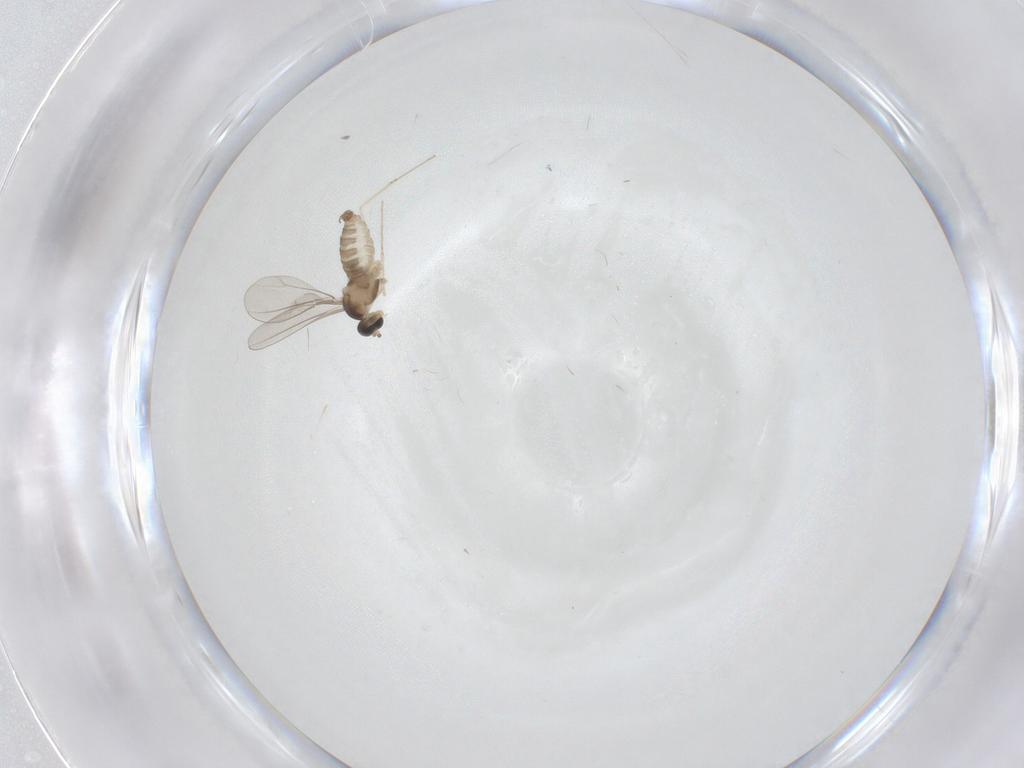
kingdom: Animalia
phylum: Arthropoda
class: Insecta
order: Diptera
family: Cecidomyiidae
